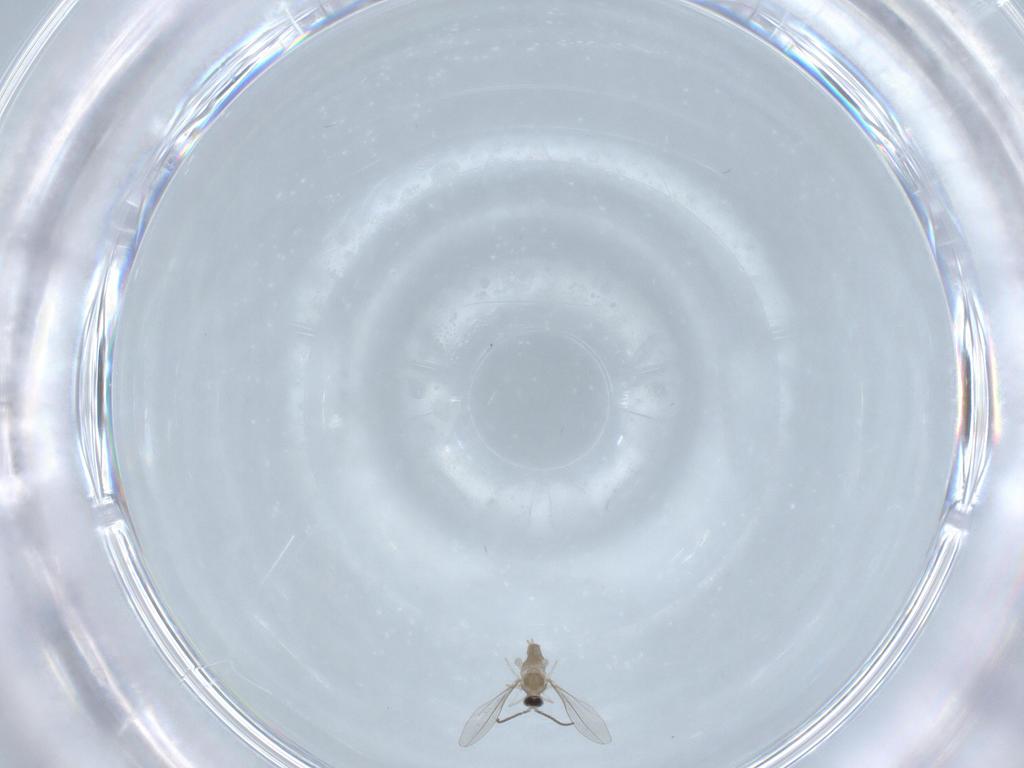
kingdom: Animalia
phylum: Arthropoda
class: Insecta
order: Diptera
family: Cecidomyiidae
